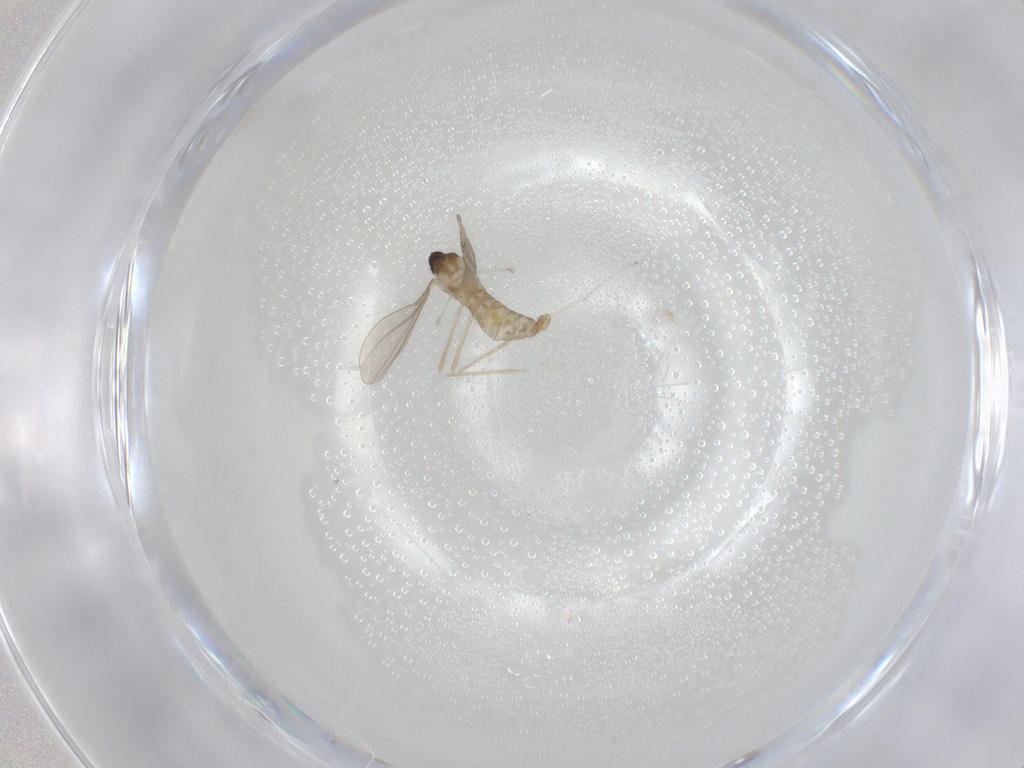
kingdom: Animalia
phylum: Arthropoda
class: Insecta
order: Diptera
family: Cecidomyiidae
